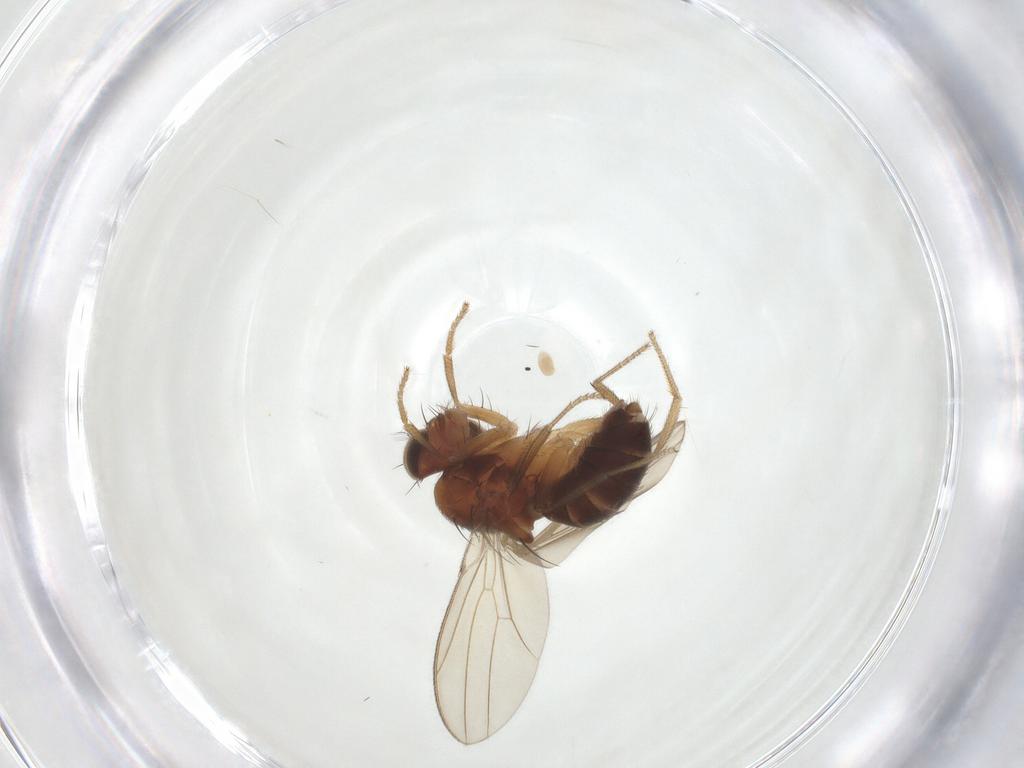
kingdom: Animalia
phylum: Arthropoda
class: Insecta
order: Diptera
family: Drosophilidae
